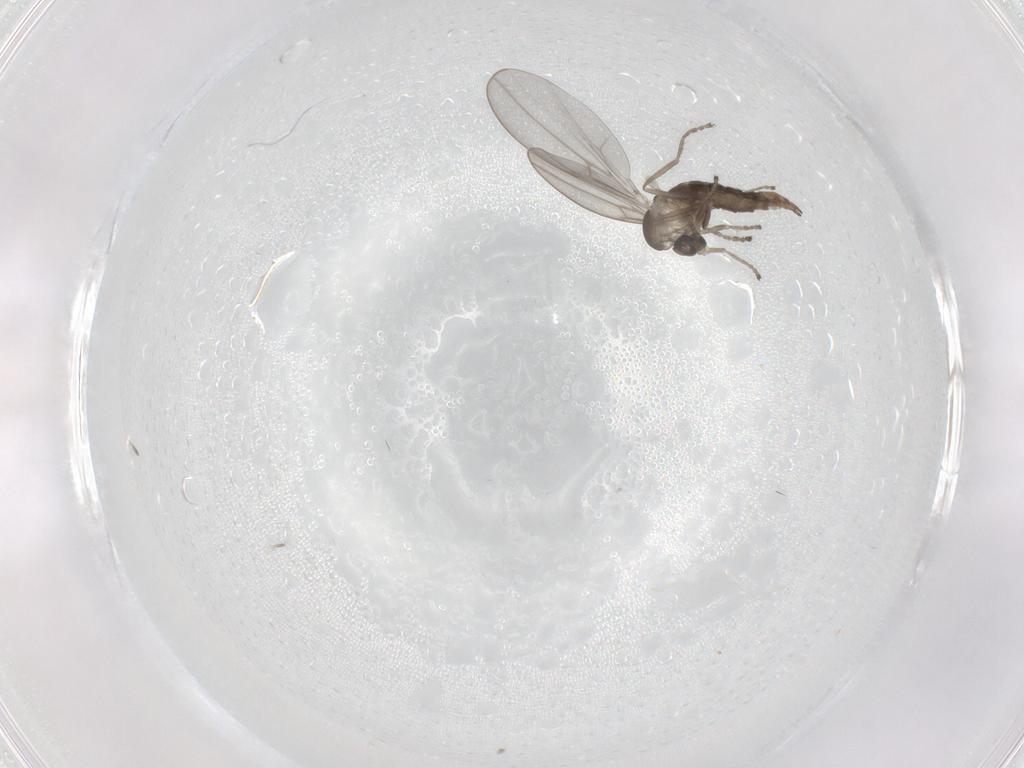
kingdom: Animalia
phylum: Arthropoda
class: Insecta
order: Diptera
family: Cecidomyiidae
